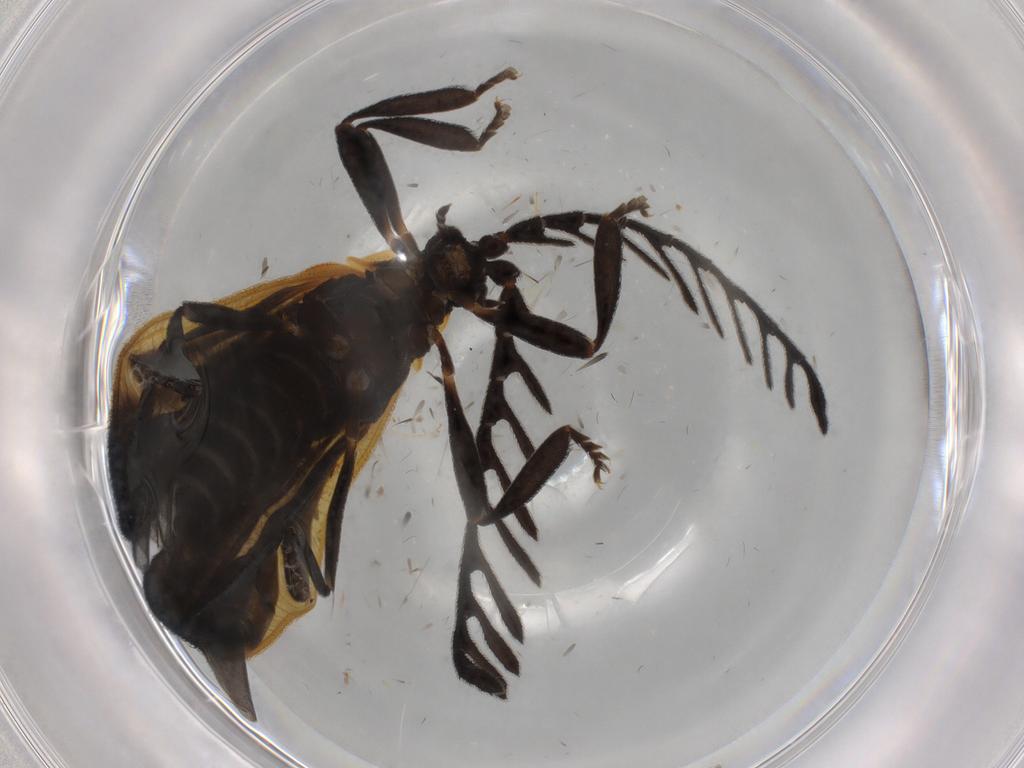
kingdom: Animalia
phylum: Arthropoda
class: Insecta
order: Coleoptera
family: Lycidae
